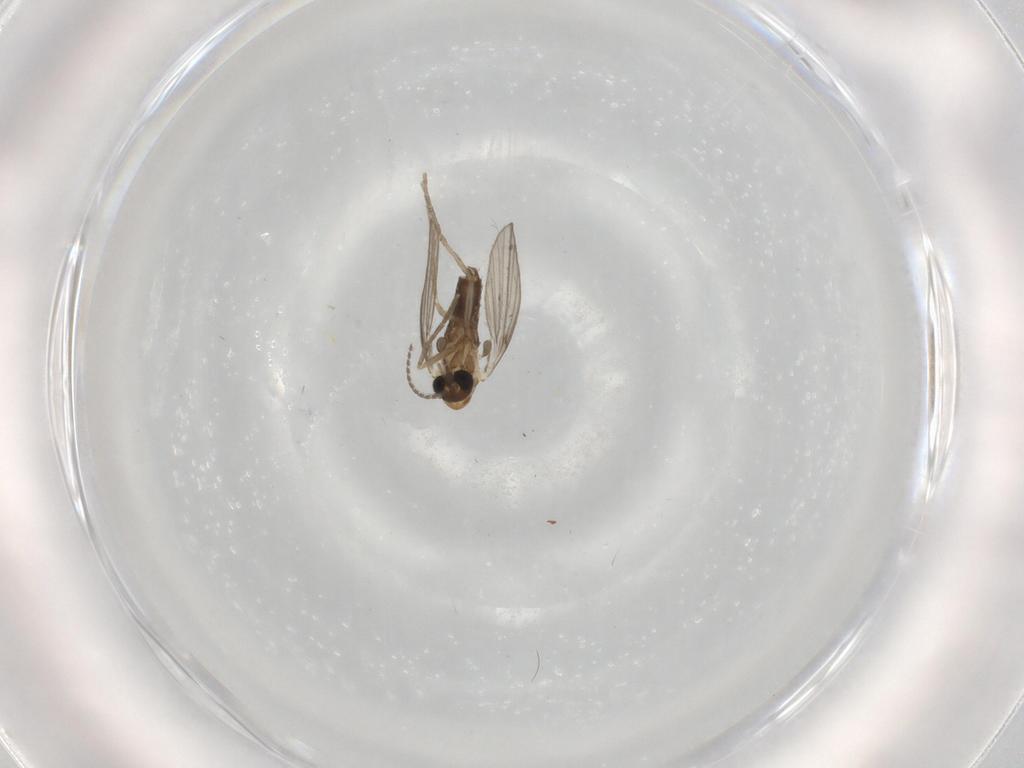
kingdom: Animalia
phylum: Arthropoda
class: Insecta
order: Diptera
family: Psychodidae
